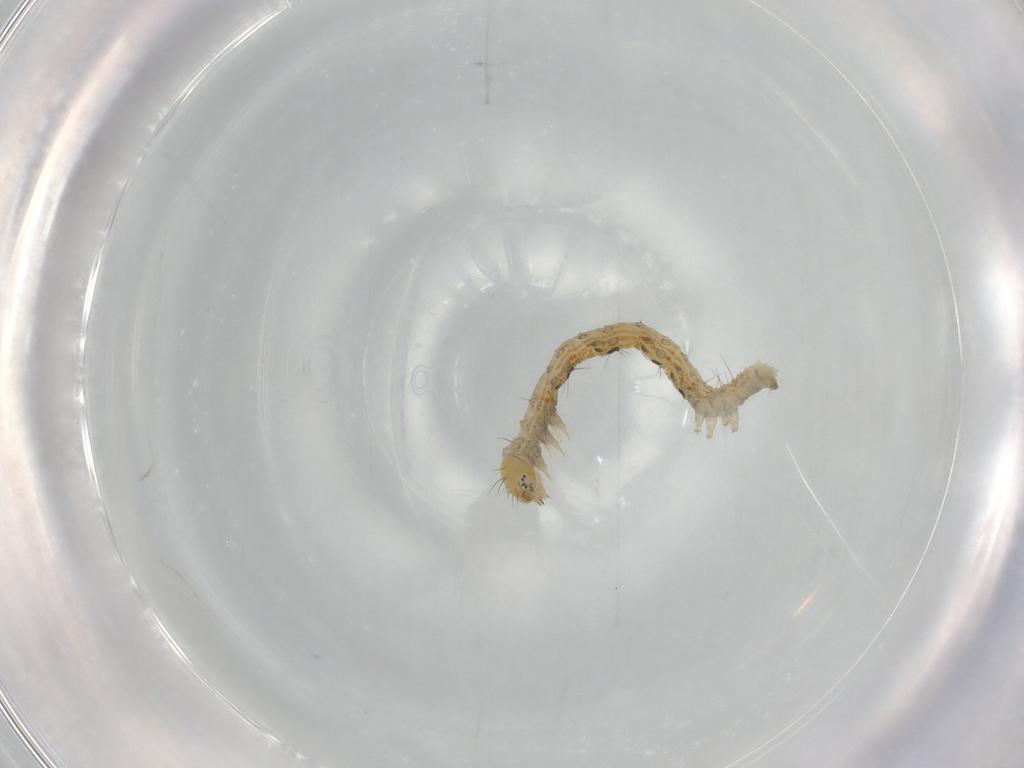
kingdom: Animalia
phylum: Arthropoda
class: Insecta
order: Lepidoptera
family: Erebidae
